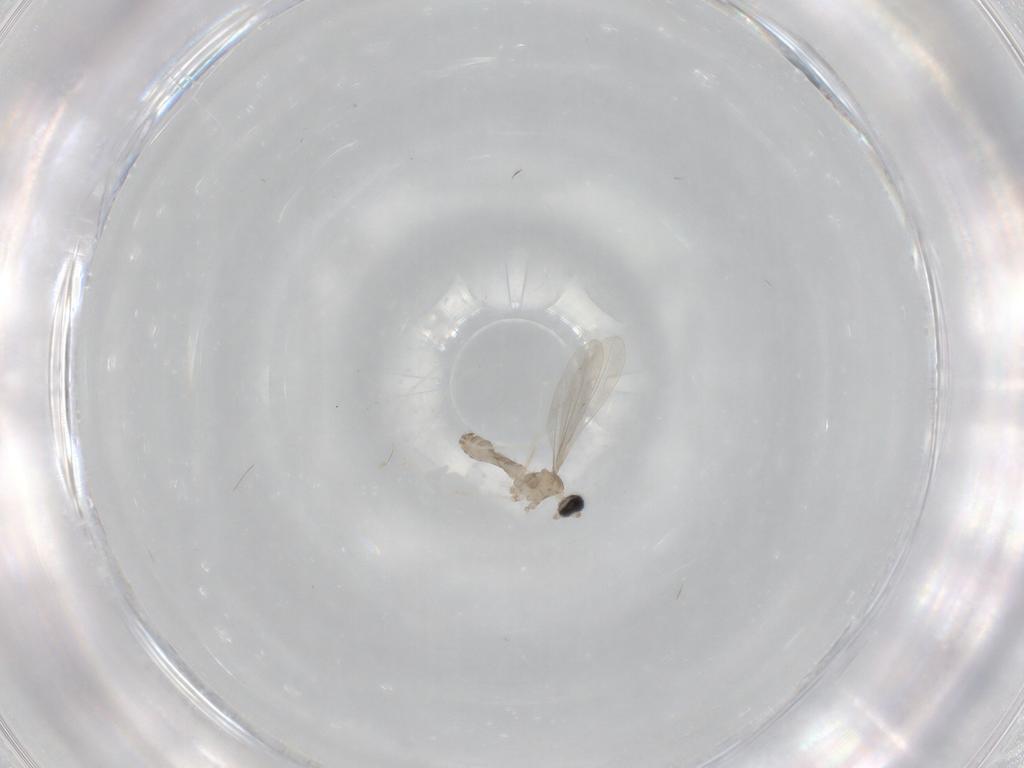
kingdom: Animalia
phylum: Arthropoda
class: Insecta
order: Diptera
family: Cecidomyiidae
